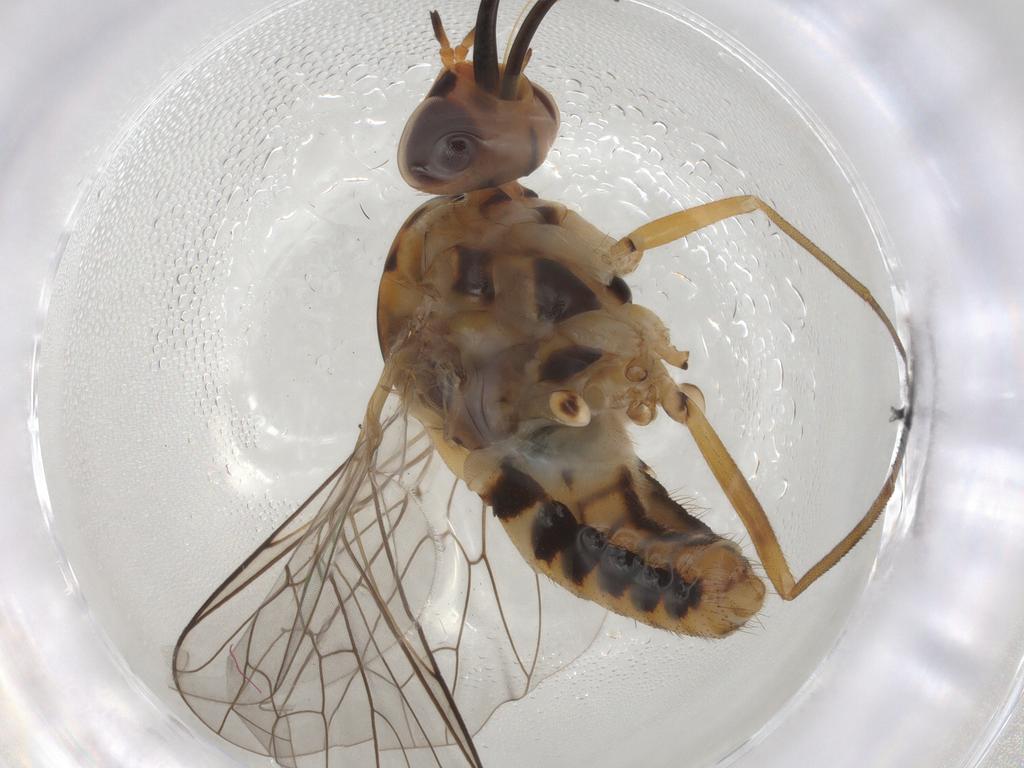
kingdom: Animalia
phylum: Arthropoda
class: Insecta
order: Diptera
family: Bombyliidae
